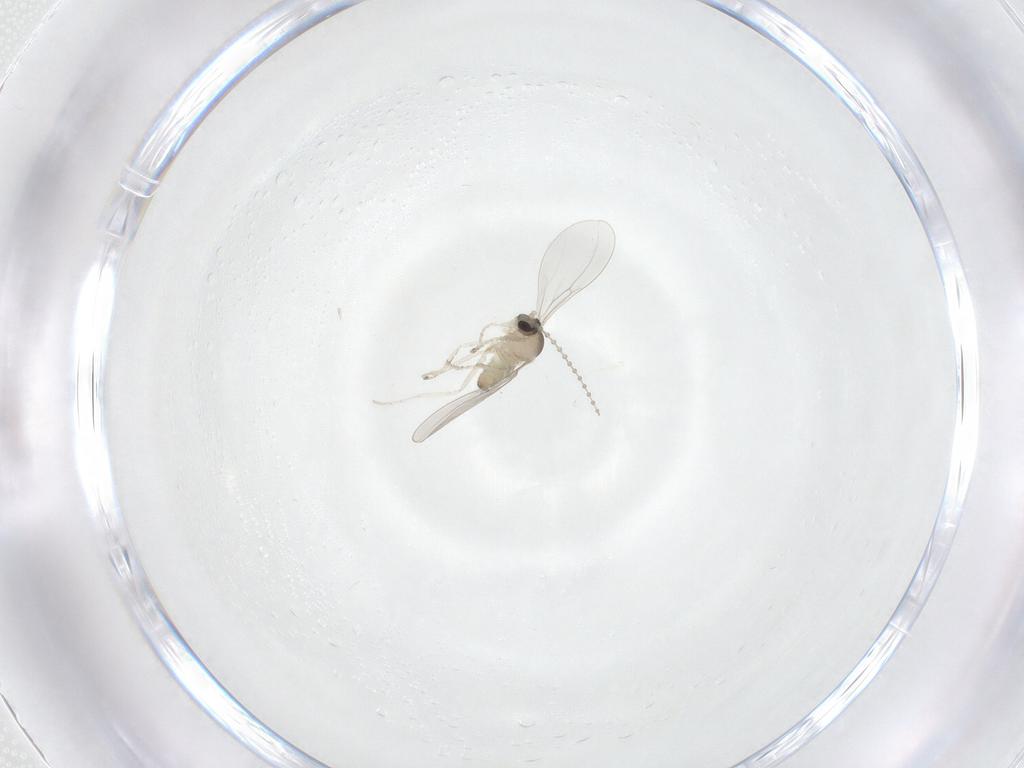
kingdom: Animalia
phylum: Arthropoda
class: Insecta
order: Diptera
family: Cecidomyiidae
